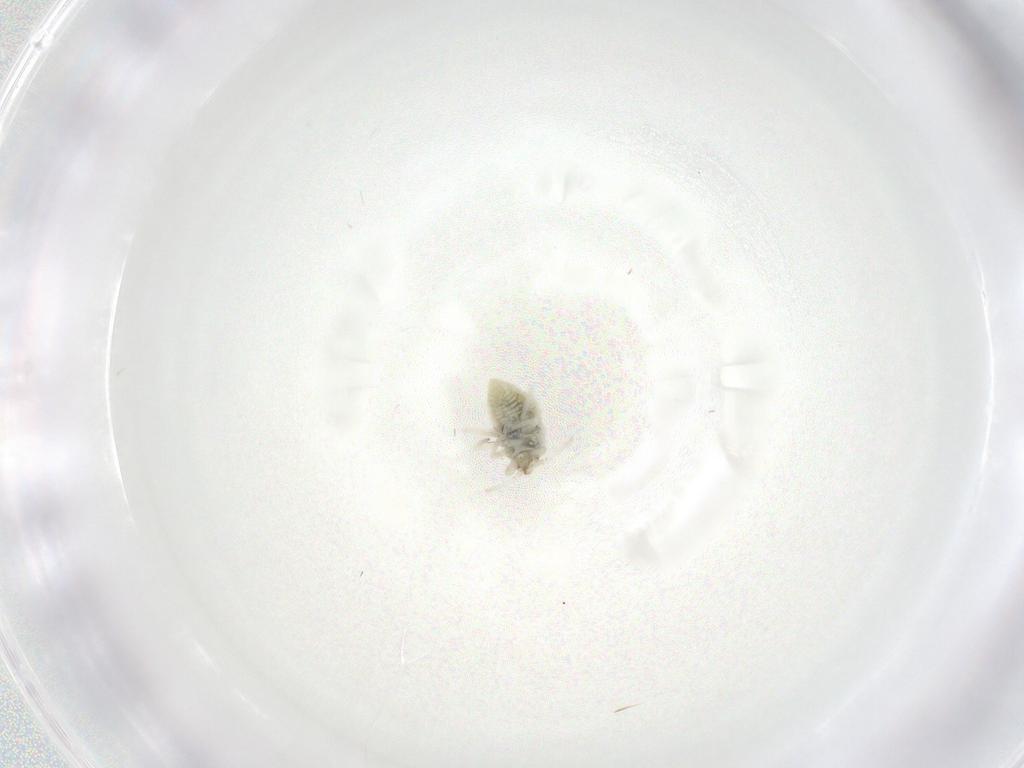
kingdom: Animalia
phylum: Arthropoda
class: Insecta
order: Neuroptera
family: Coniopterygidae
